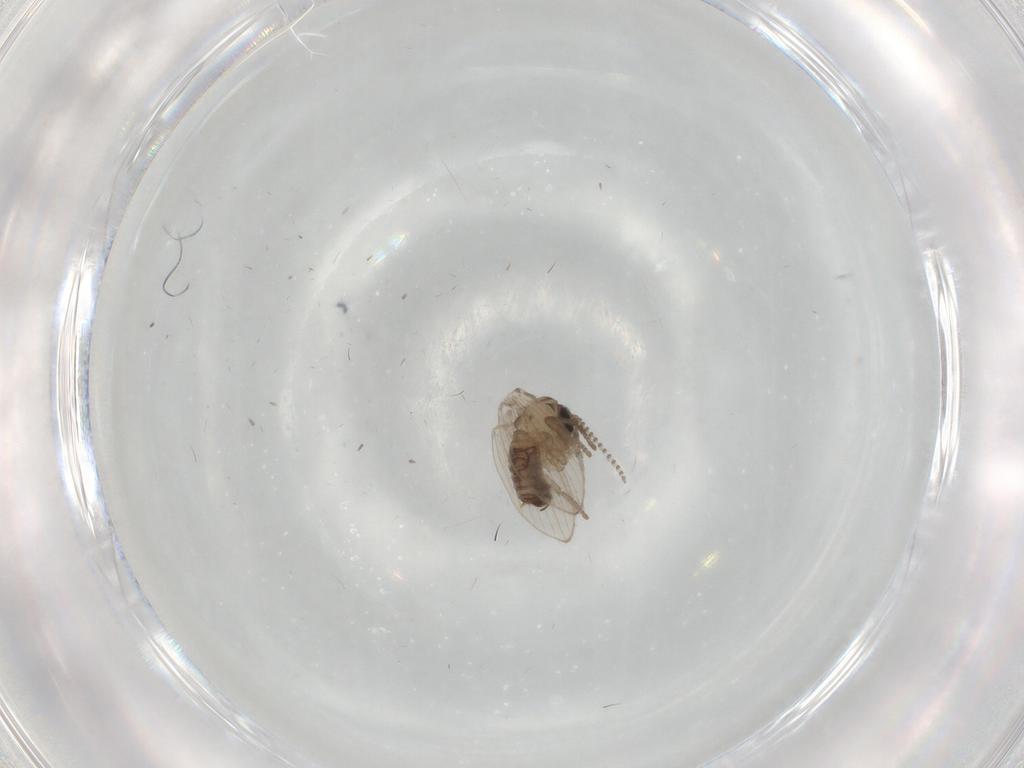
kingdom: Animalia
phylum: Arthropoda
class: Insecta
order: Diptera
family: Psychodidae
